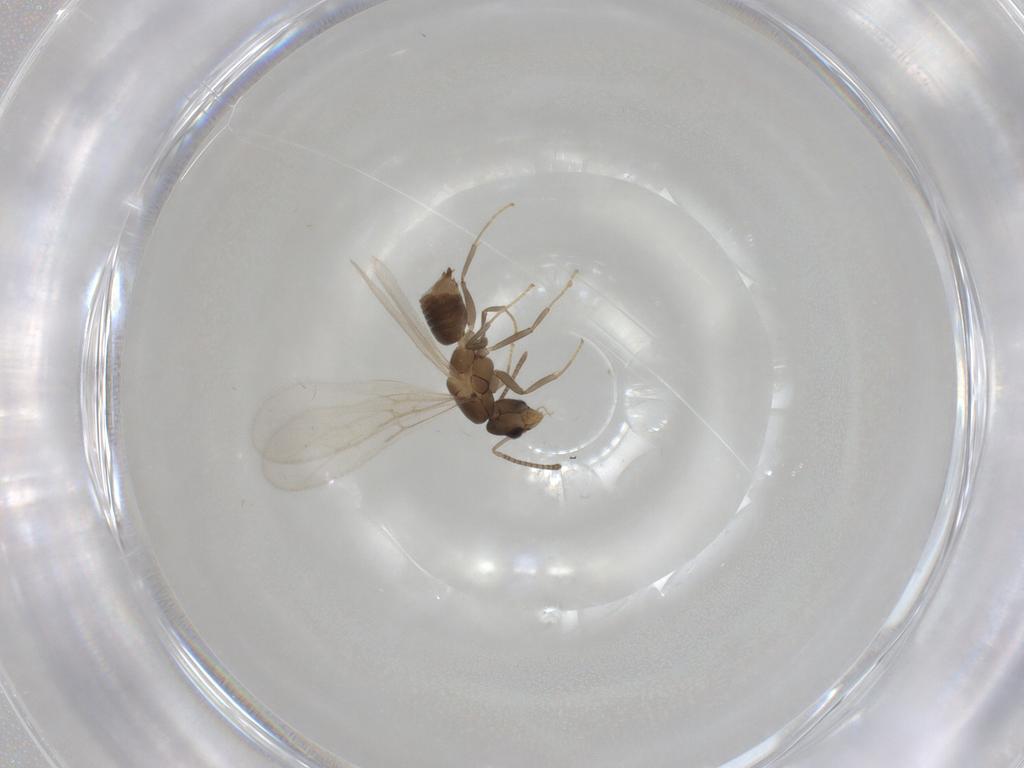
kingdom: Animalia
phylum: Arthropoda
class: Insecta
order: Hymenoptera
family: Formicidae
